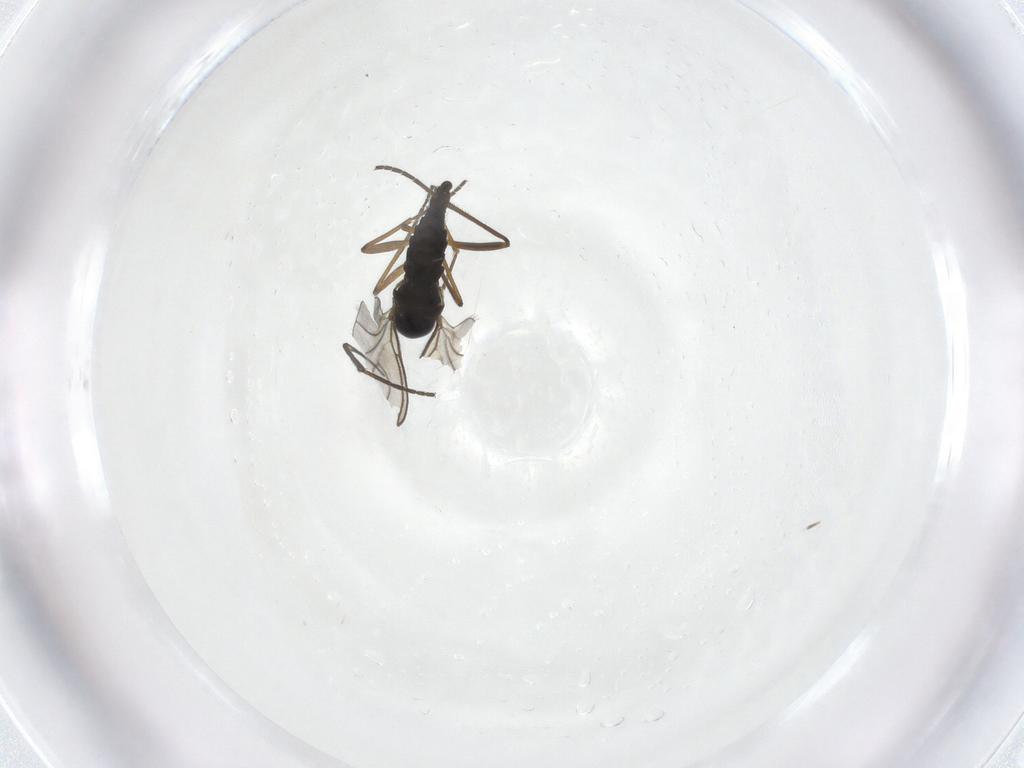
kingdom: Animalia
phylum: Arthropoda
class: Insecta
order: Diptera
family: Sciaridae
